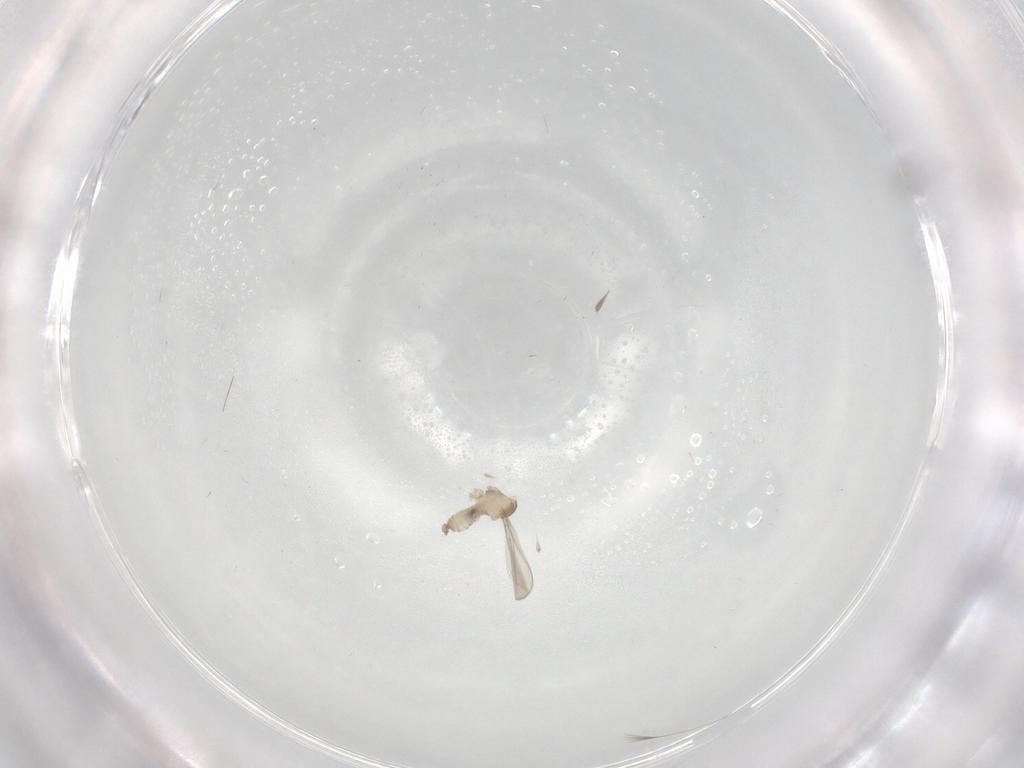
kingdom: Animalia
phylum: Arthropoda
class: Insecta
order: Diptera
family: Cecidomyiidae
